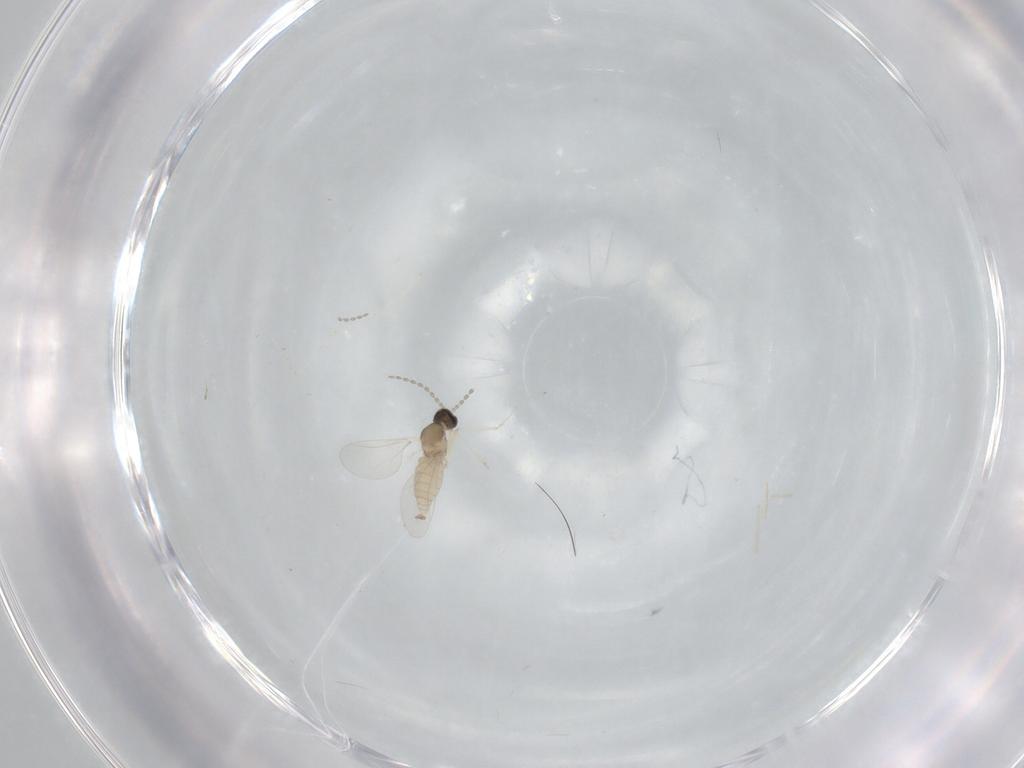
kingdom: Animalia
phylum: Arthropoda
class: Insecta
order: Diptera
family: Cecidomyiidae
